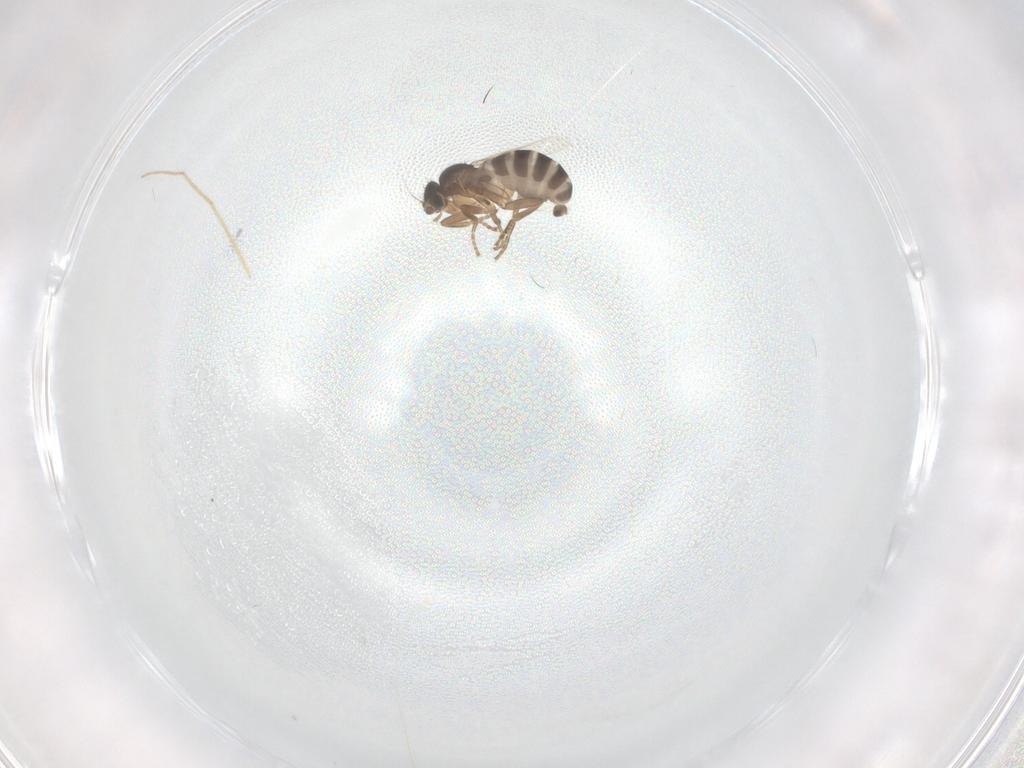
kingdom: Animalia
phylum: Arthropoda
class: Insecta
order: Diptera
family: Phoridae
